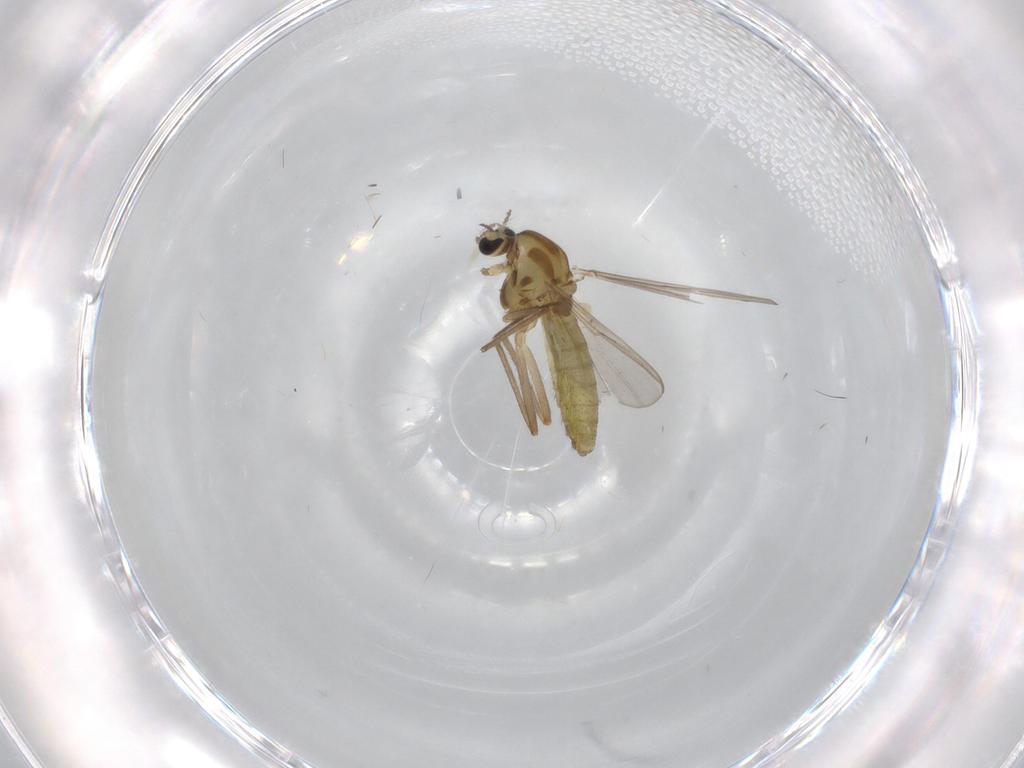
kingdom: Animalia
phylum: Arthropoda
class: Insecta
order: Diptera
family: Chironomidae
